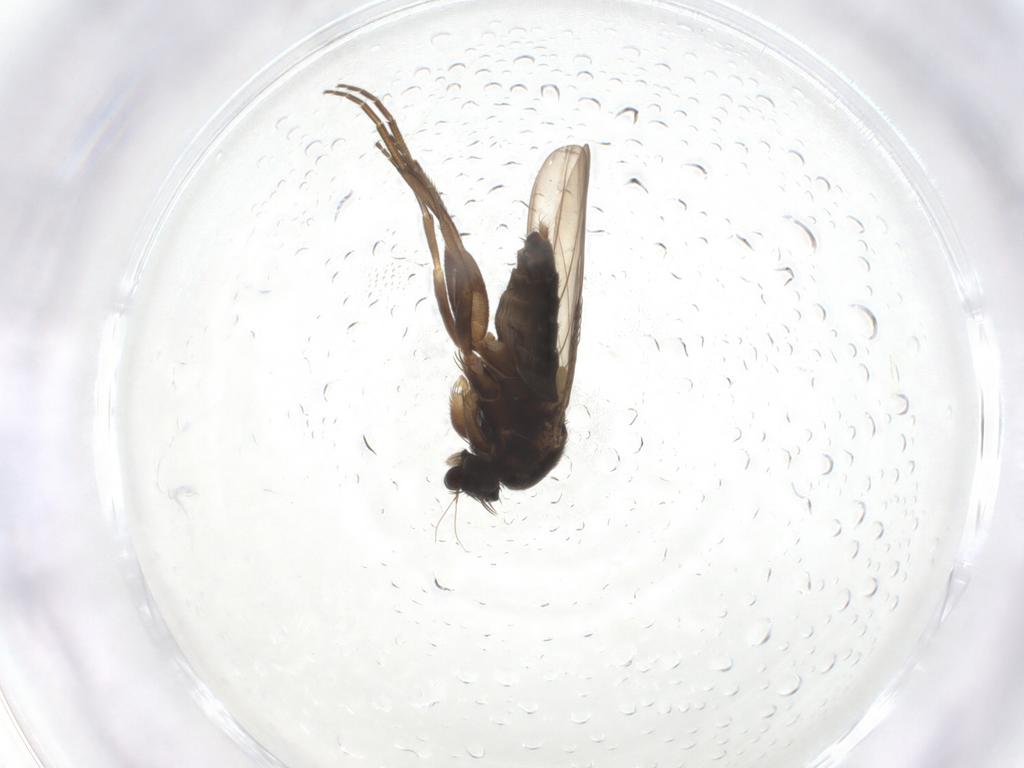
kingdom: Animalia
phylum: Arthropoda
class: Insecta
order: Diptera
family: Phoridae
